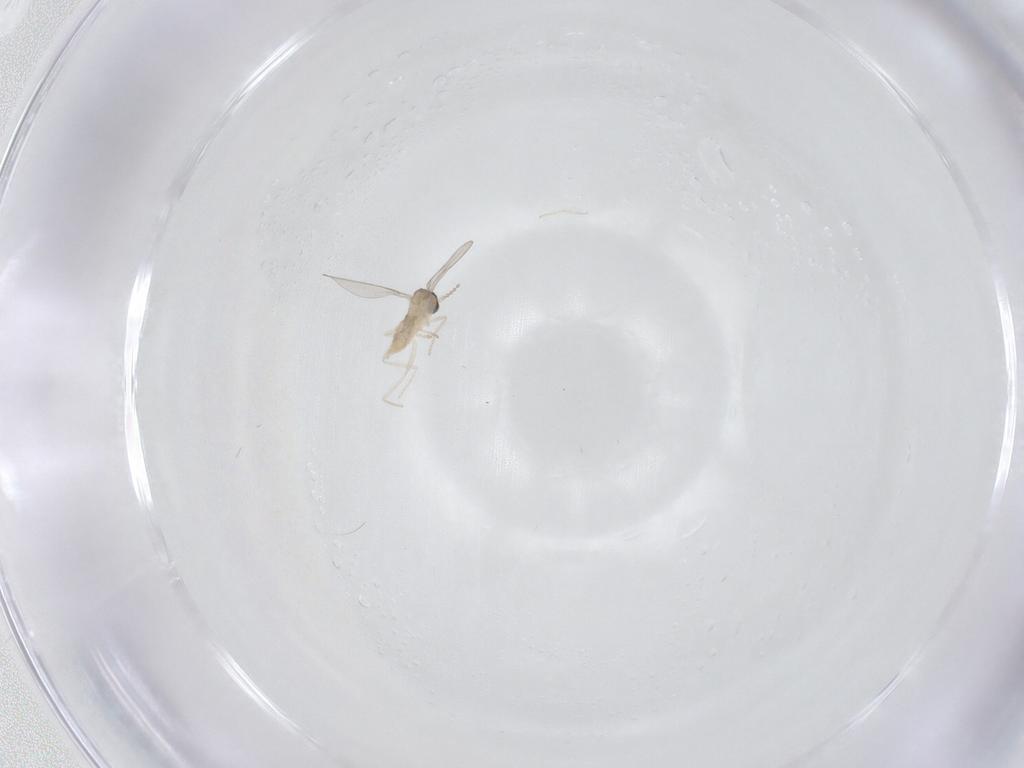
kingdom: Animalia
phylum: Arthropoda
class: Insecta
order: Diptera
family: Cecidomyiidae
